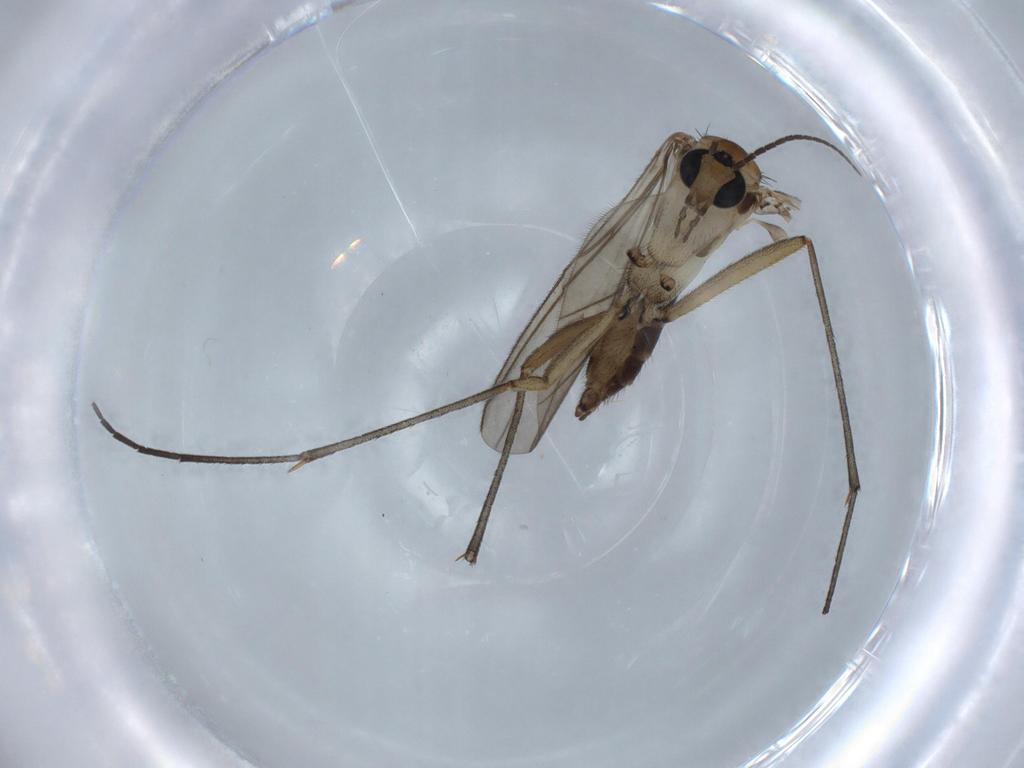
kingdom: Animalia
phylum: Arthropoda
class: Insecta
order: Diptera
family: Sciaridae
